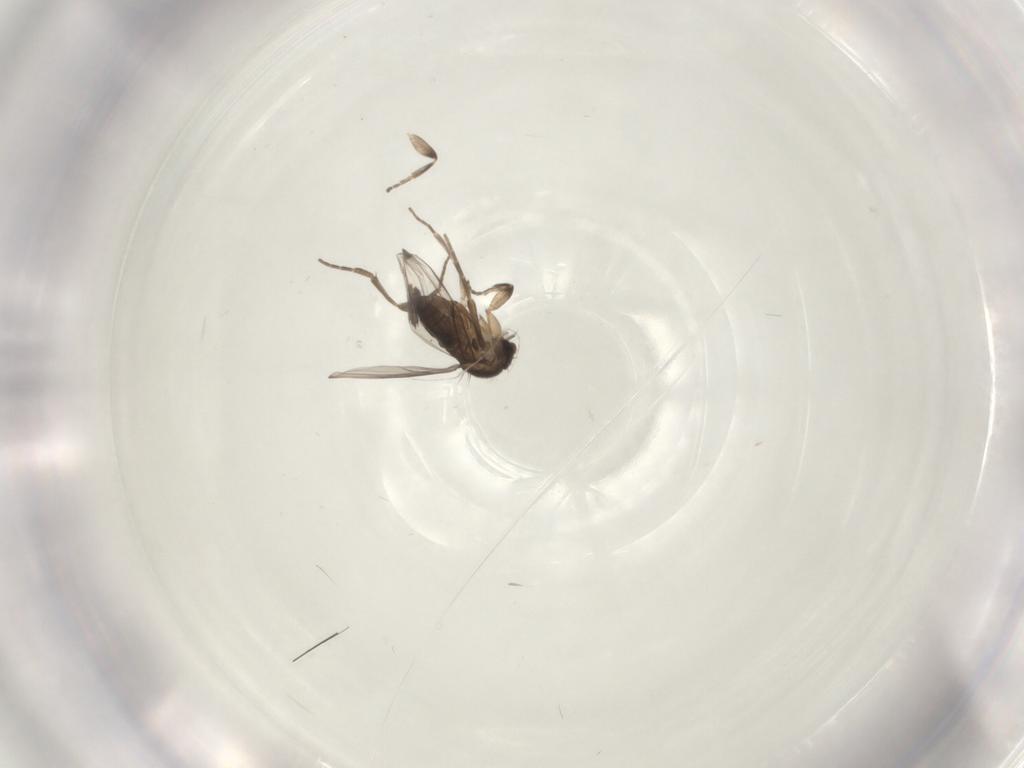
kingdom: Animalia
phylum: Arthropoda
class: Insecta
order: Diptera
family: Phoridae
